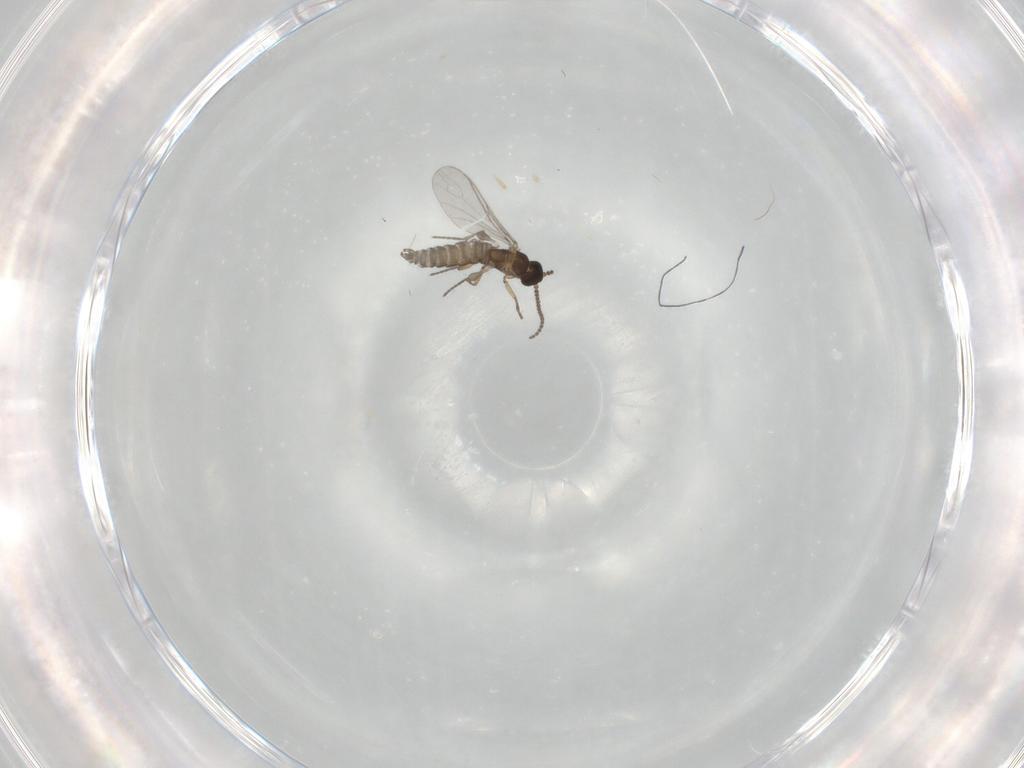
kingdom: Animalia
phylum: Arthropoda
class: Insecta
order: Diptera
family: Sciaridae
